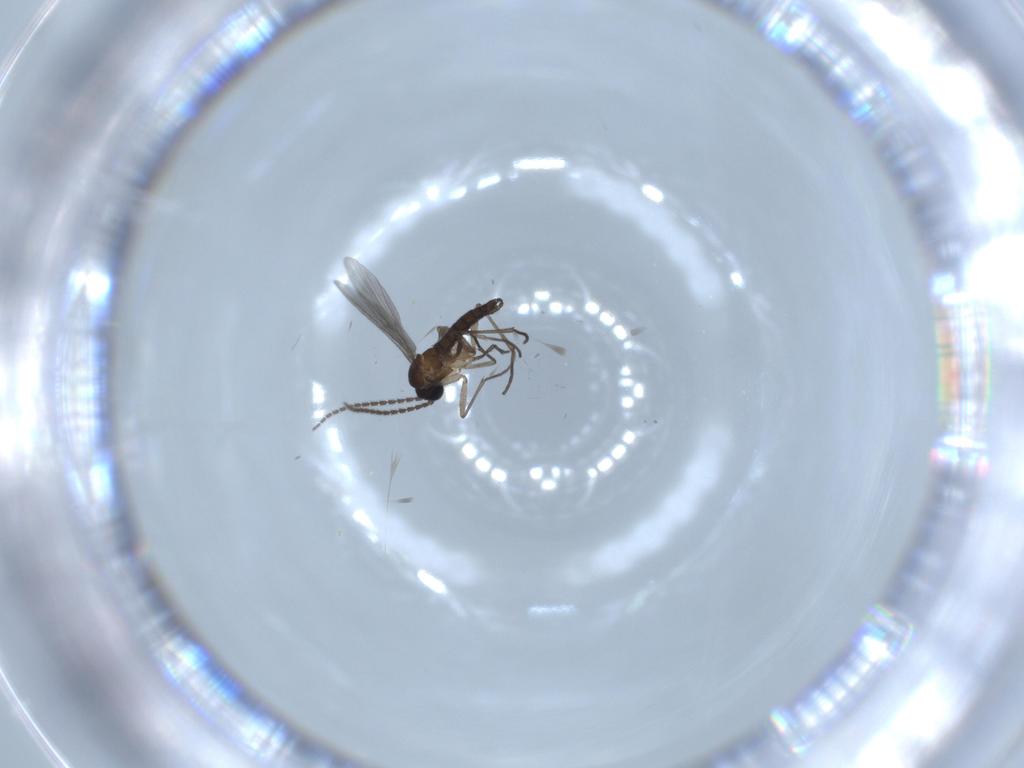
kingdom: Animalia
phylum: Arthropoda
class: Insecta
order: Diptera
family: Sciaridae
